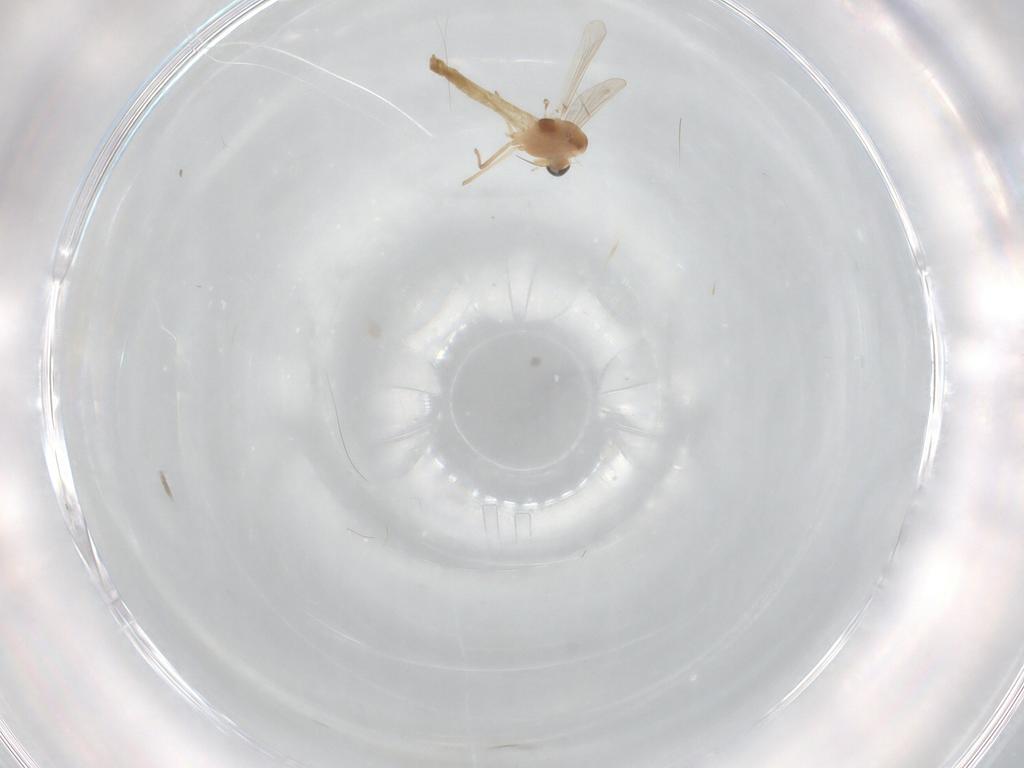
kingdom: Animalia
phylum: Arthropoda
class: Insecta
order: Diptera
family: Chironomidae
